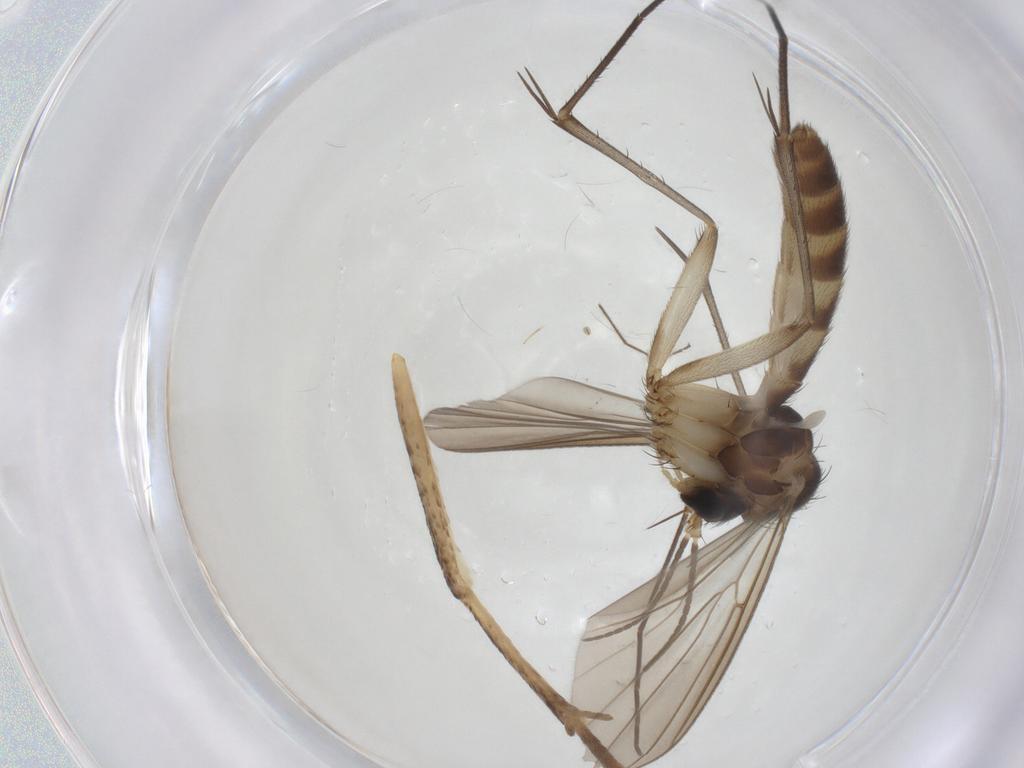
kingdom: Animalia
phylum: Arthropoda
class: Insecta
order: Diptera
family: Mycetophilidae
